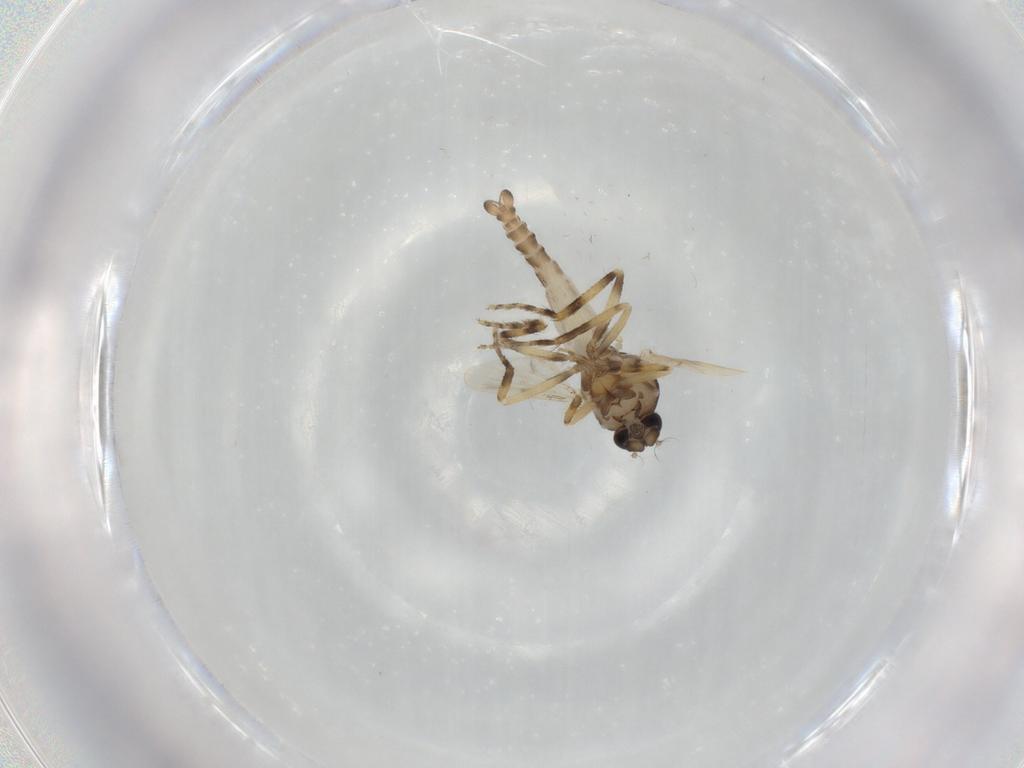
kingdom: Animalia
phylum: Arthropoda
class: Insecta
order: Diptera
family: Ceratopogonidae
